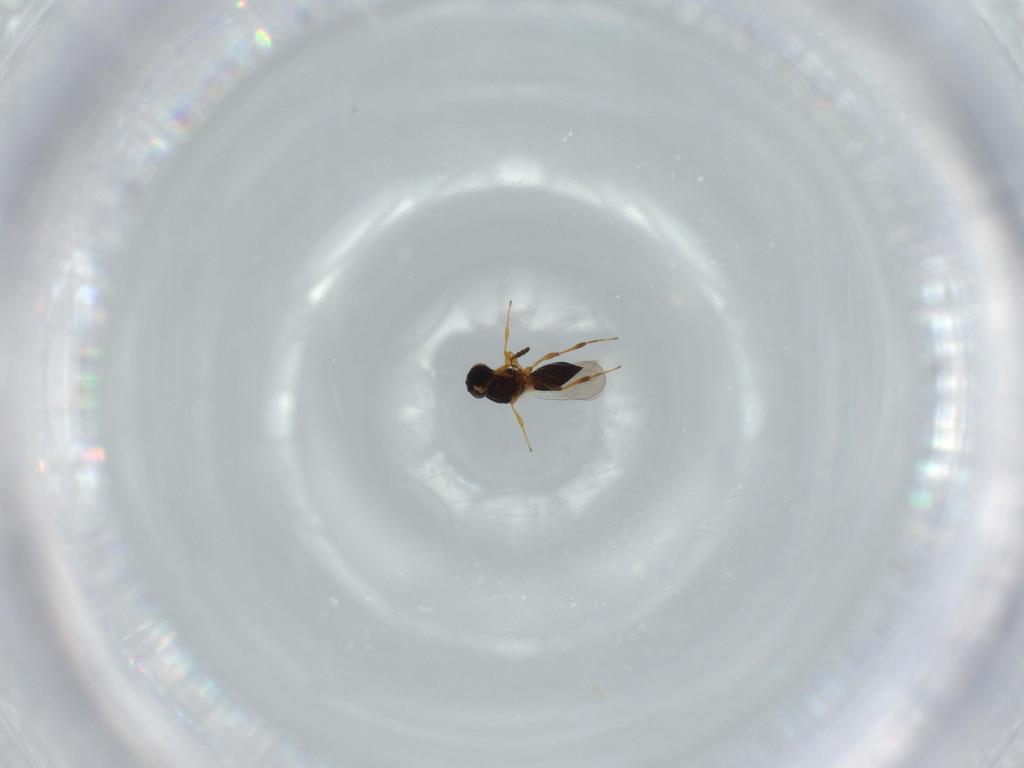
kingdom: Animalia
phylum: Arthropoda
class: Insecta
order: Hymenoptera
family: Platygastridae
